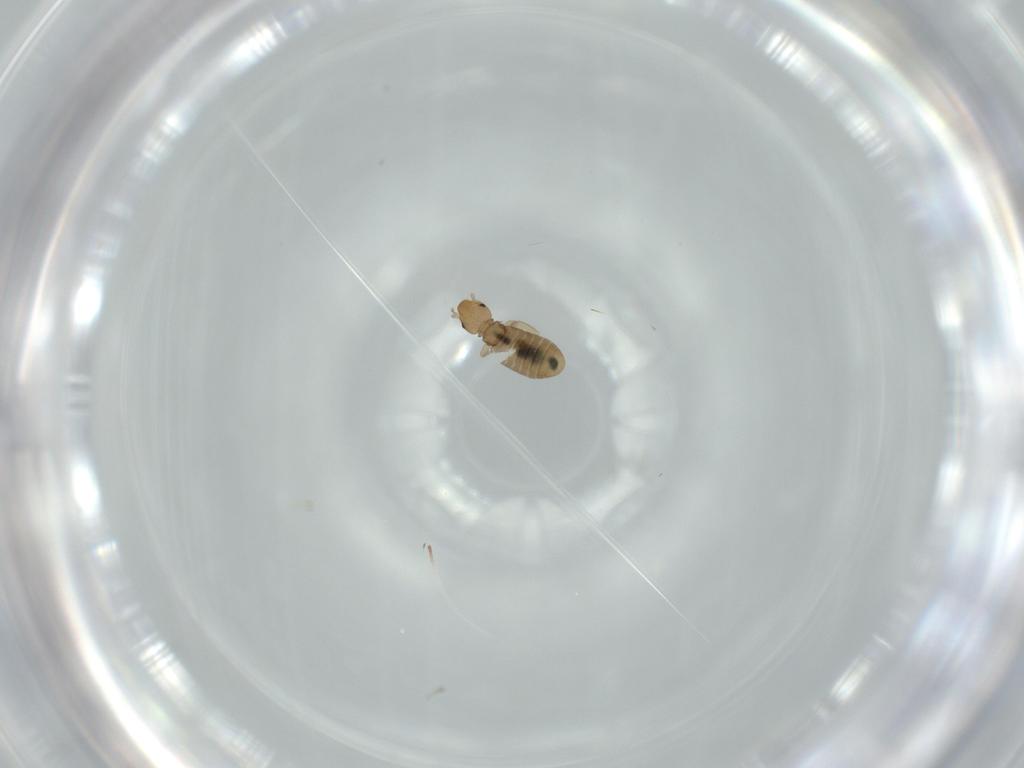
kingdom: Animalia
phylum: Arthropoda
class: Insecta
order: Psocodea
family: Liposcelididae
